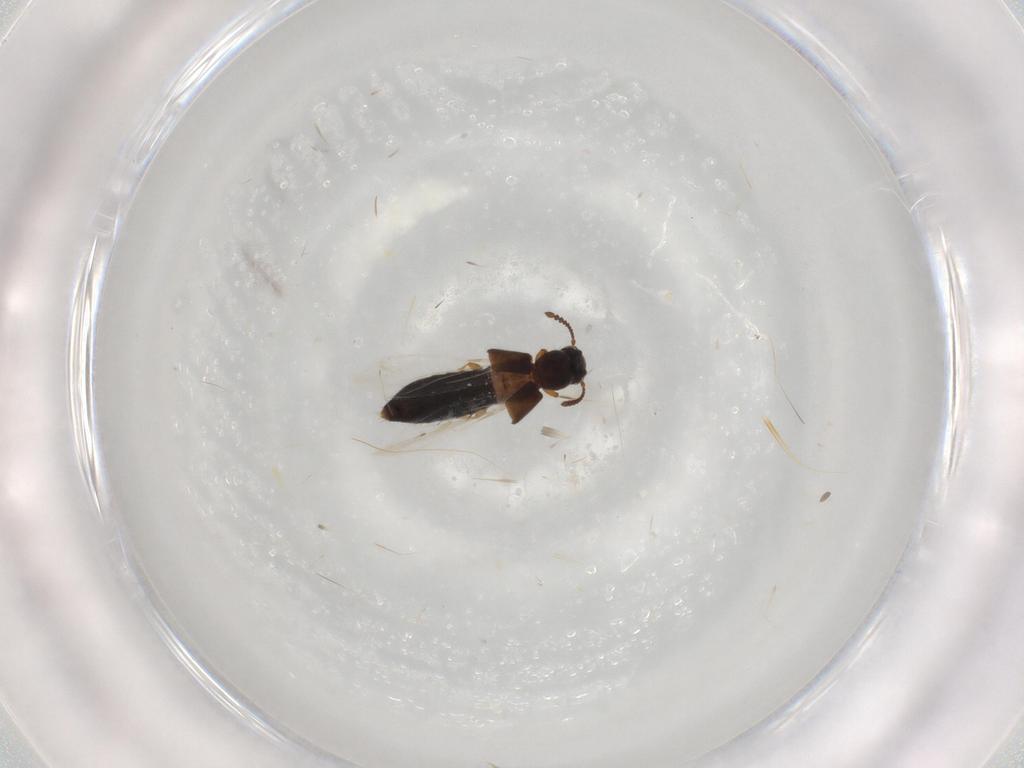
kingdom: Animalia
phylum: Arthropoda
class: Insecta
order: Coleoptera
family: Staphylinidae
